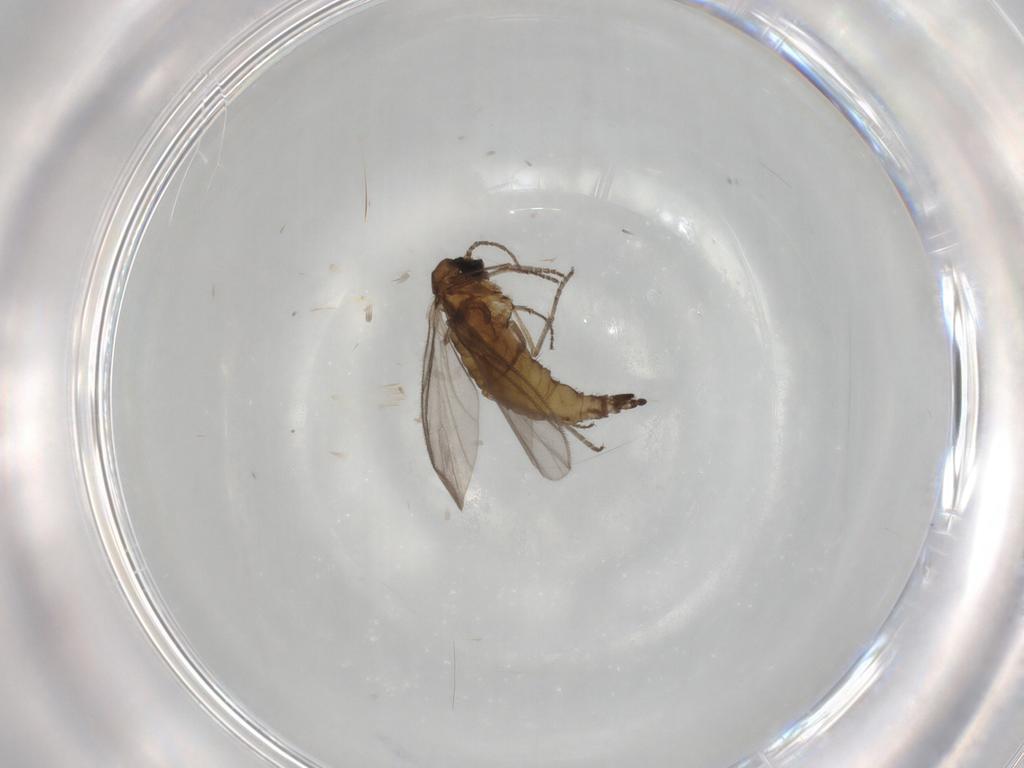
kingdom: Animalia
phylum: Arthropoda
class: Insecta
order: Diptera
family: Sciaridae
